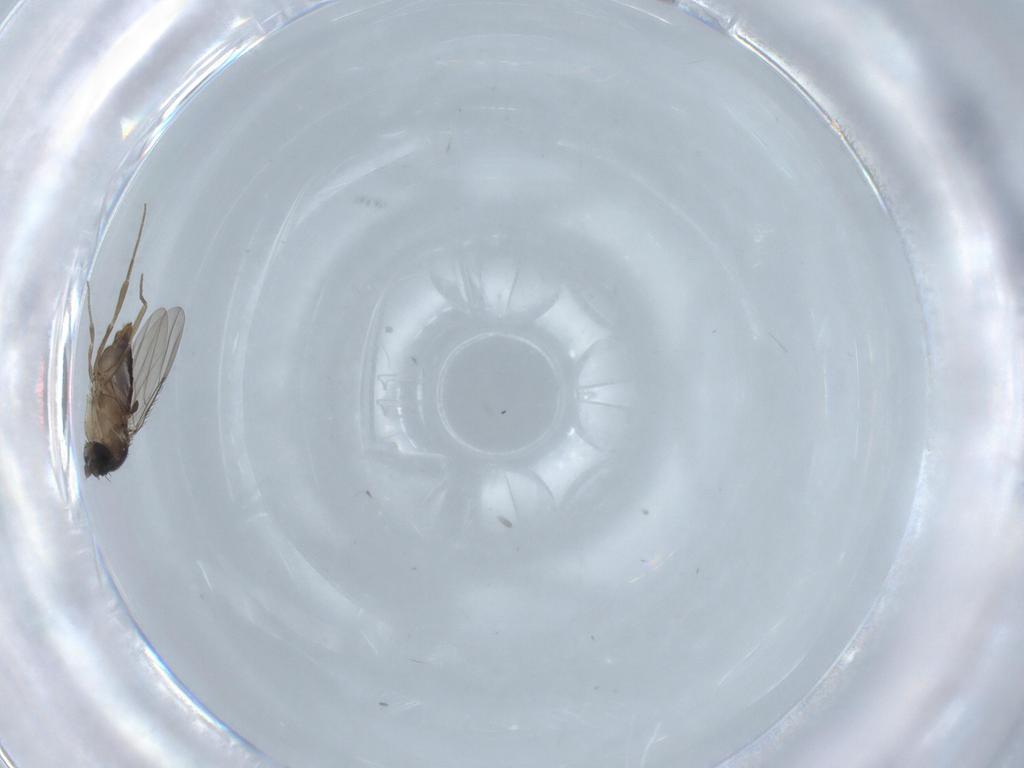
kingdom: Animalia
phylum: Arthropoda
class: Insecta
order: Diptera
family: Phoridae
